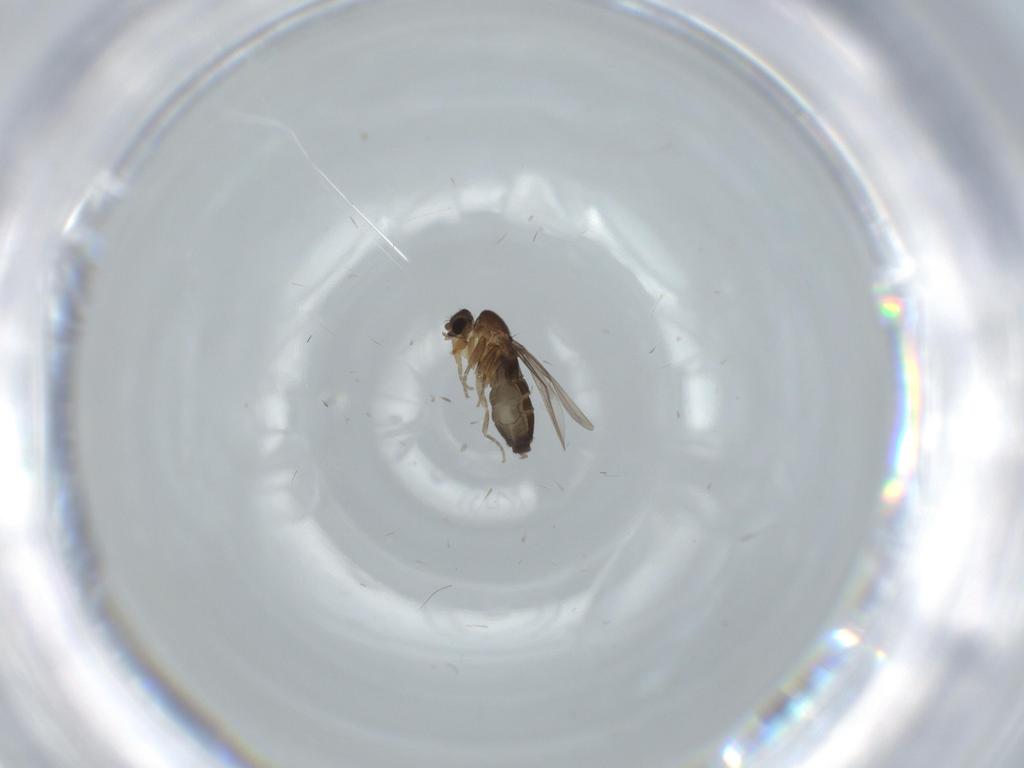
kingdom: Animalia
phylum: Arthropoda
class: Insecta
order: Diptera
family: Phoridae
